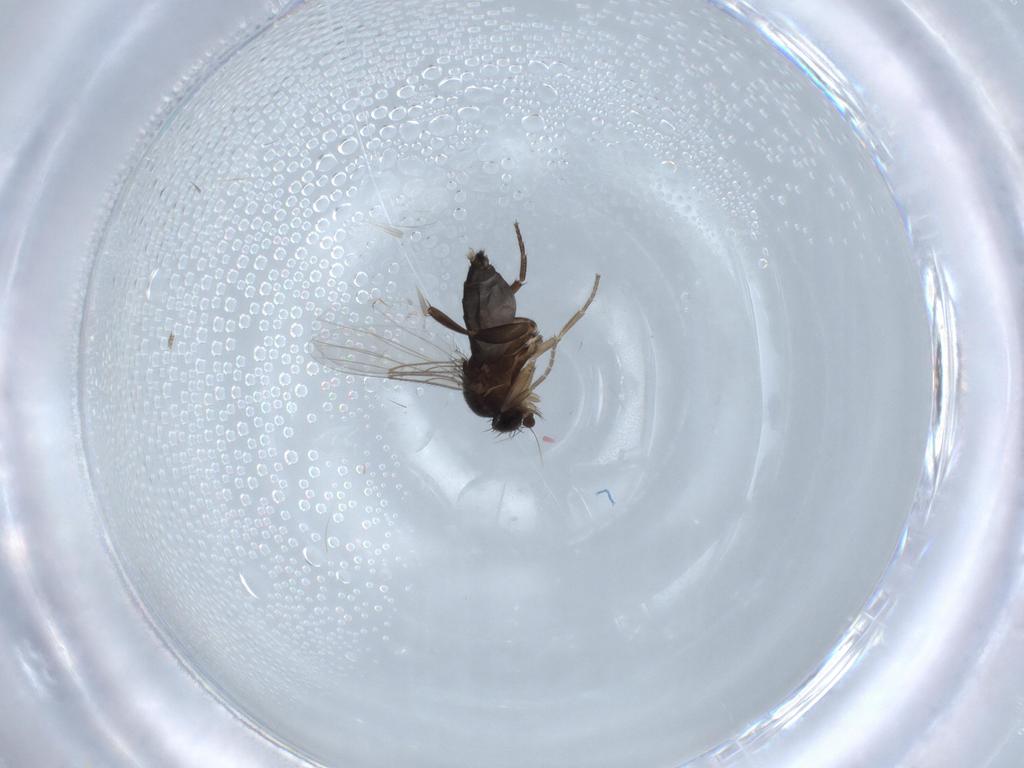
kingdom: Animalia
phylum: Arthropoda
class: Insecta
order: Diptera
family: Phoridae
